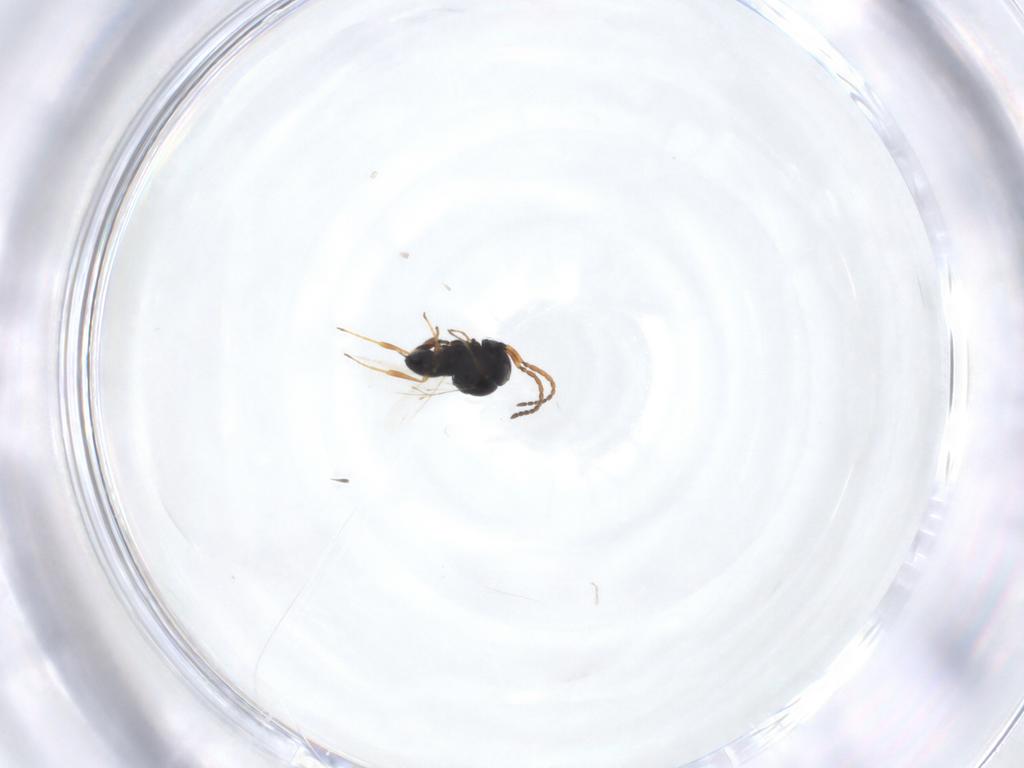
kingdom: Animalia
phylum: Arthropoda
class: Insecta
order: Hymenoptera
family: Scelionidae
